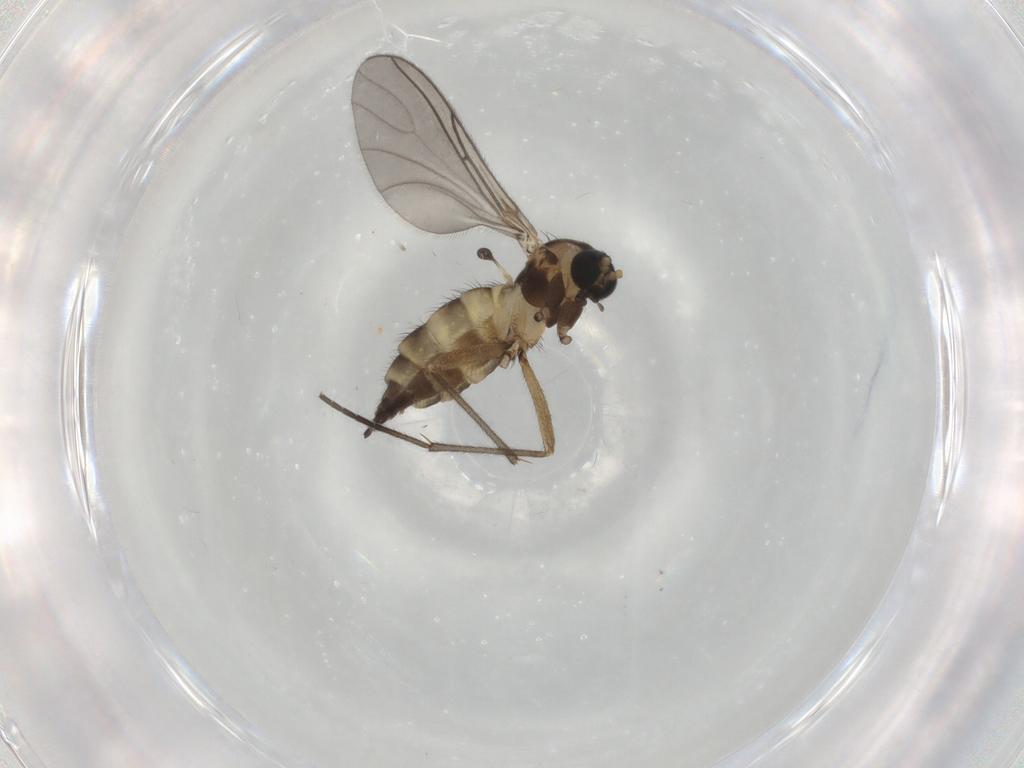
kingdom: Animalia
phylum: Arthropoda
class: Insecta
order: Diptera
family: Sciaridae
